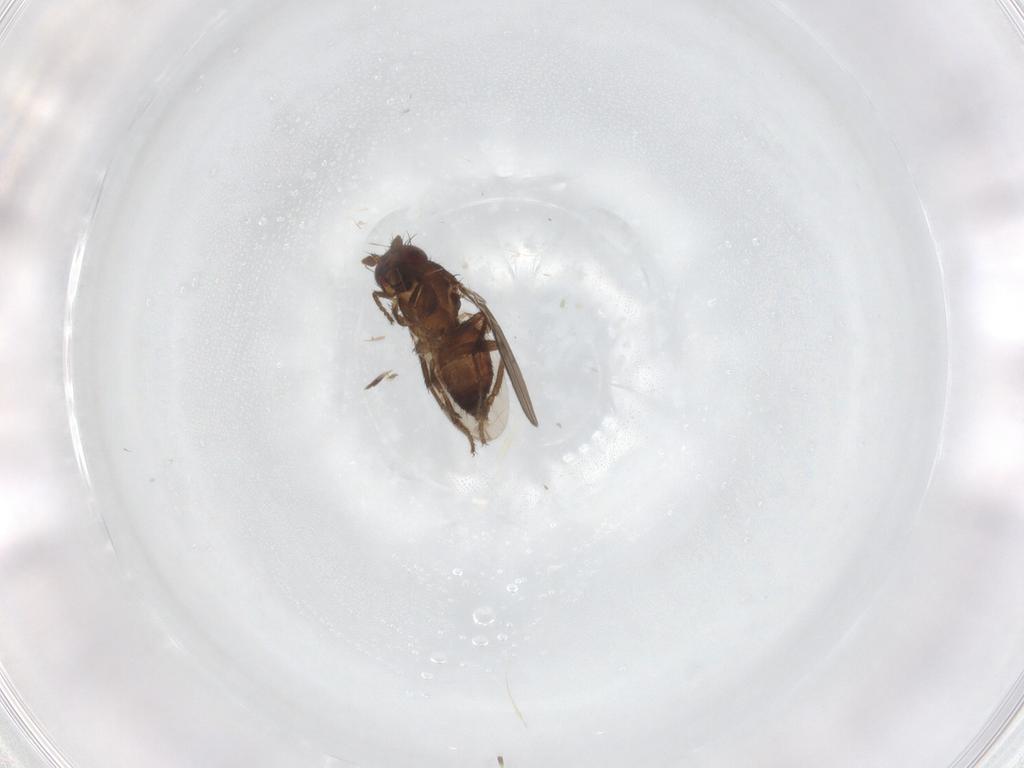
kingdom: Animalia
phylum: Arthropoda
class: Insecta
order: Diptera
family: Sphaeroceridae
